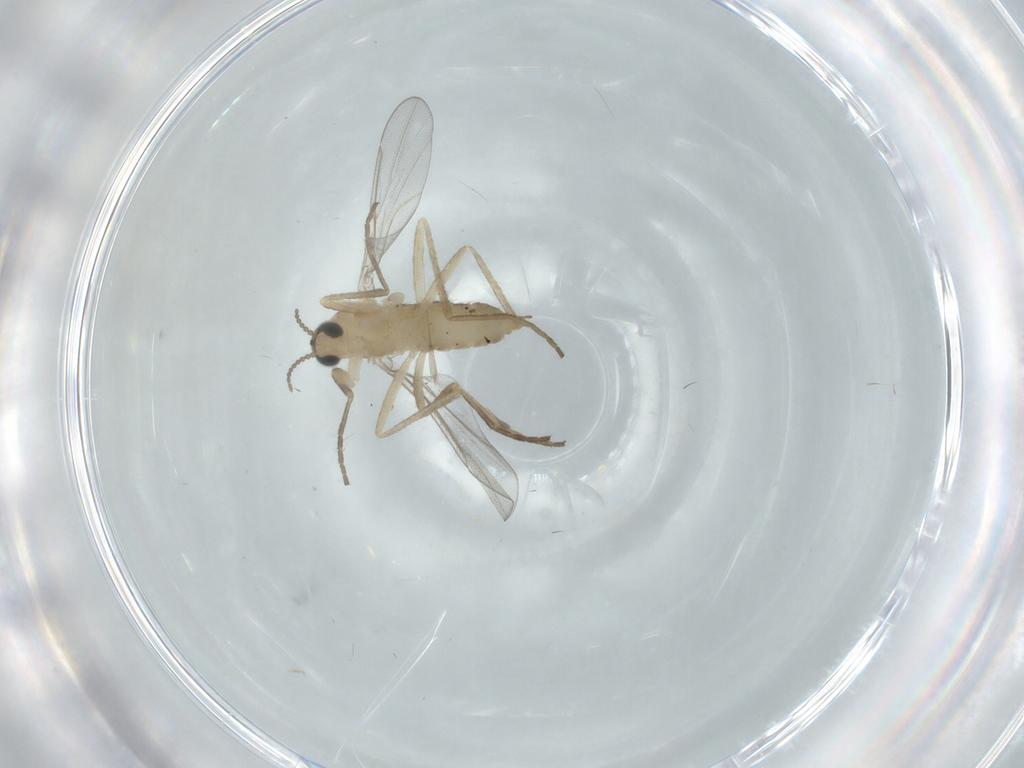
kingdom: Animalia
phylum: Arthropoda
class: Insecta
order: Diptera
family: Cecidomyiidae
